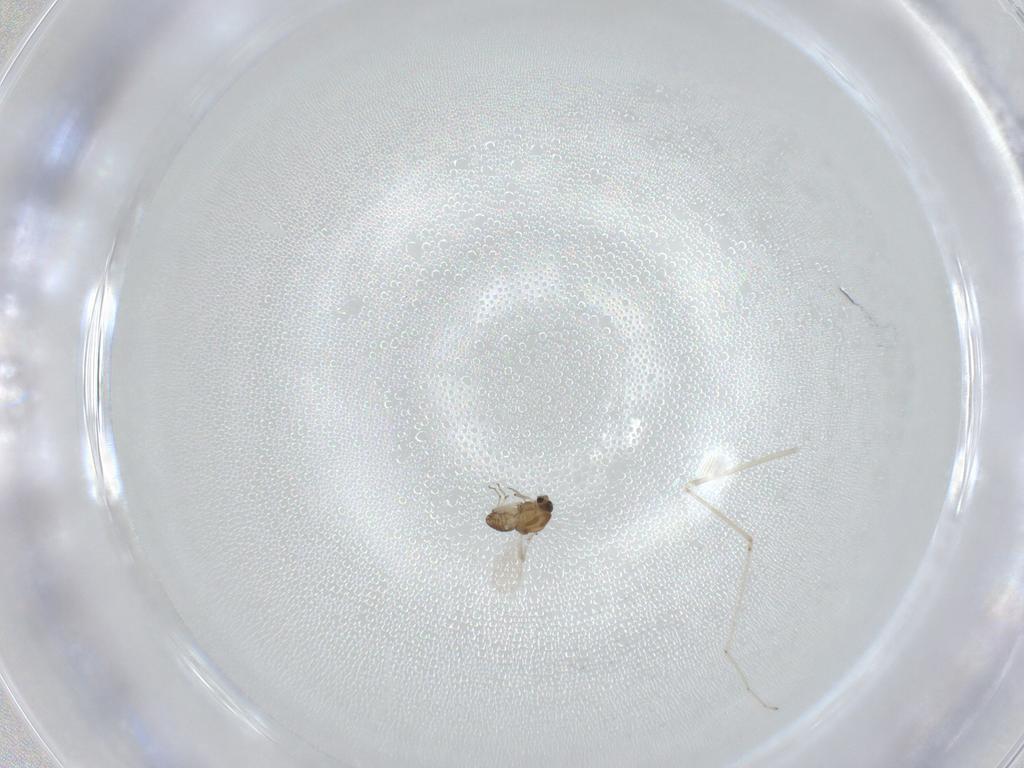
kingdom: Animalia
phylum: Arthropoda
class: Insecta
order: Diptera
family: Chironomidae
